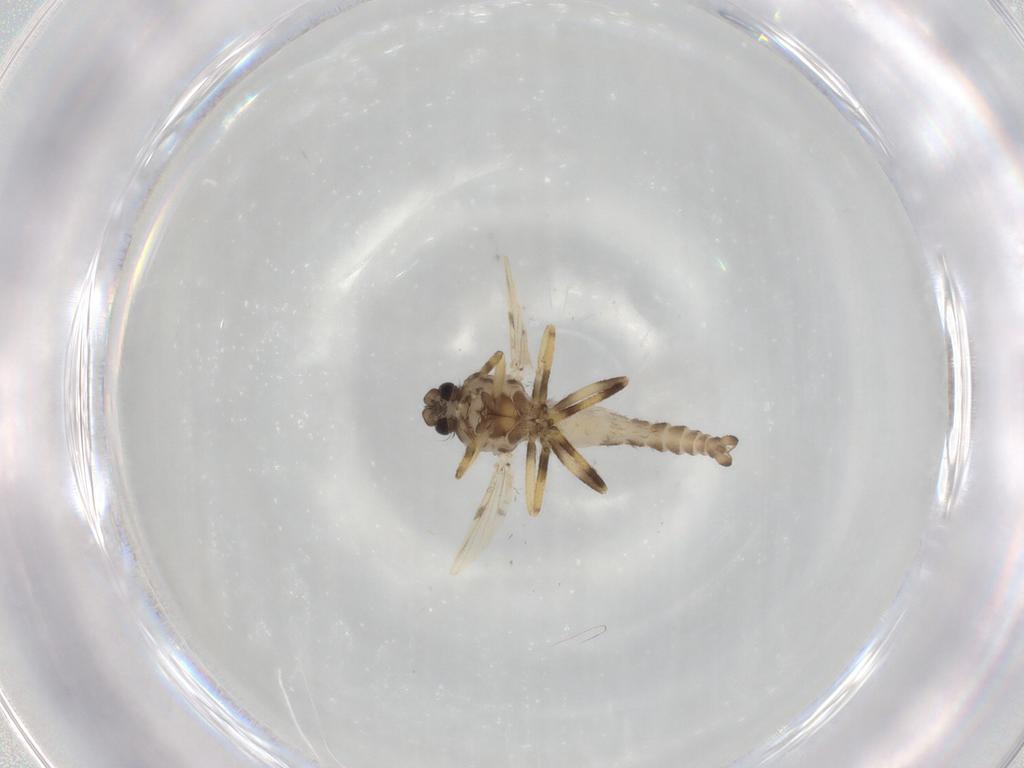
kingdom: Animalia
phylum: Arthropoda
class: Insecta
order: Diptera
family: Ceratopogonidae
